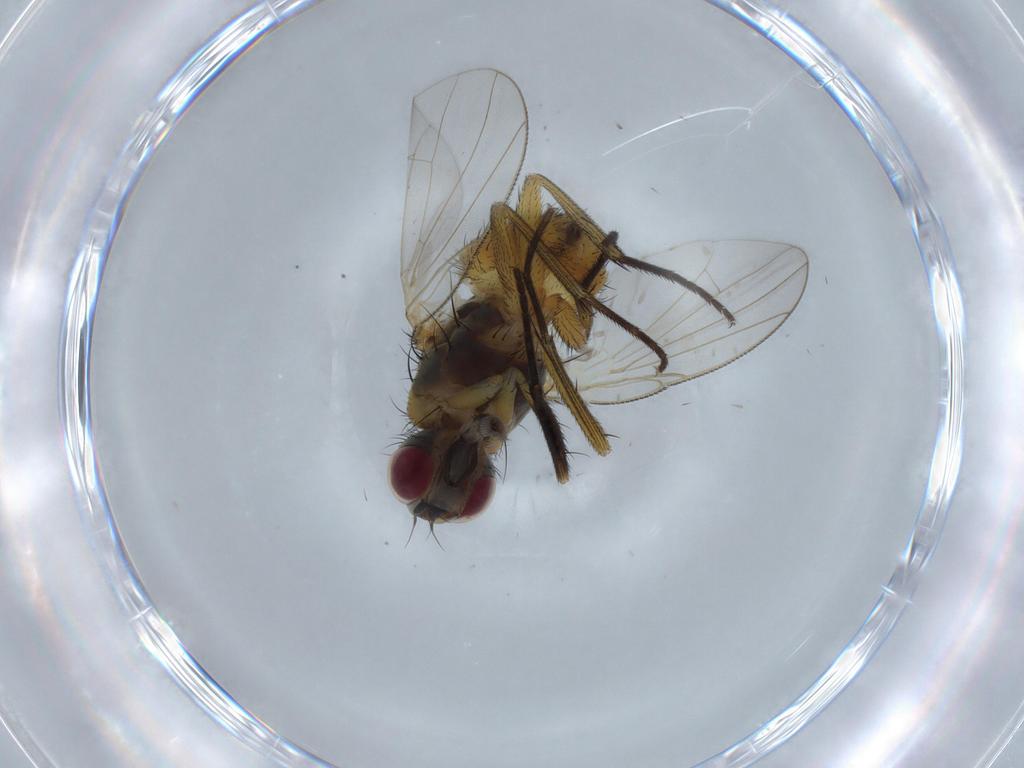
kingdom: Animalia
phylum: Arthropoda
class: Insecta
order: Diptera
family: Muscidae
